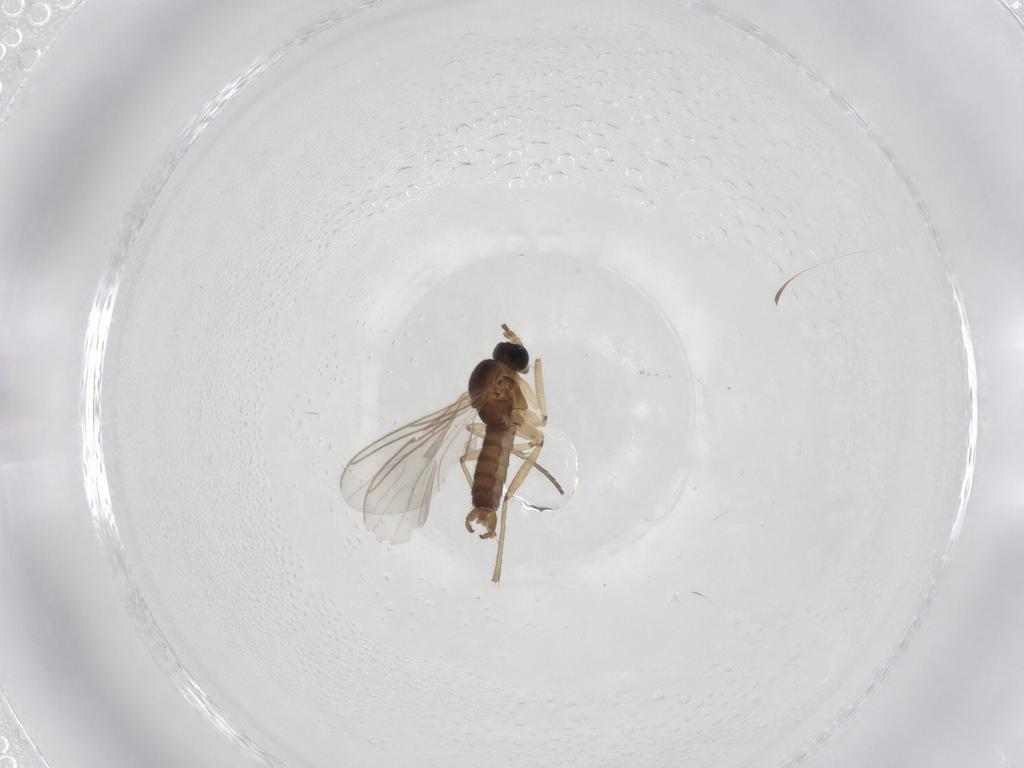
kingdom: Animalia
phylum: Arthropoda
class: Insecta
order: Diptera
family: Sciaridae
